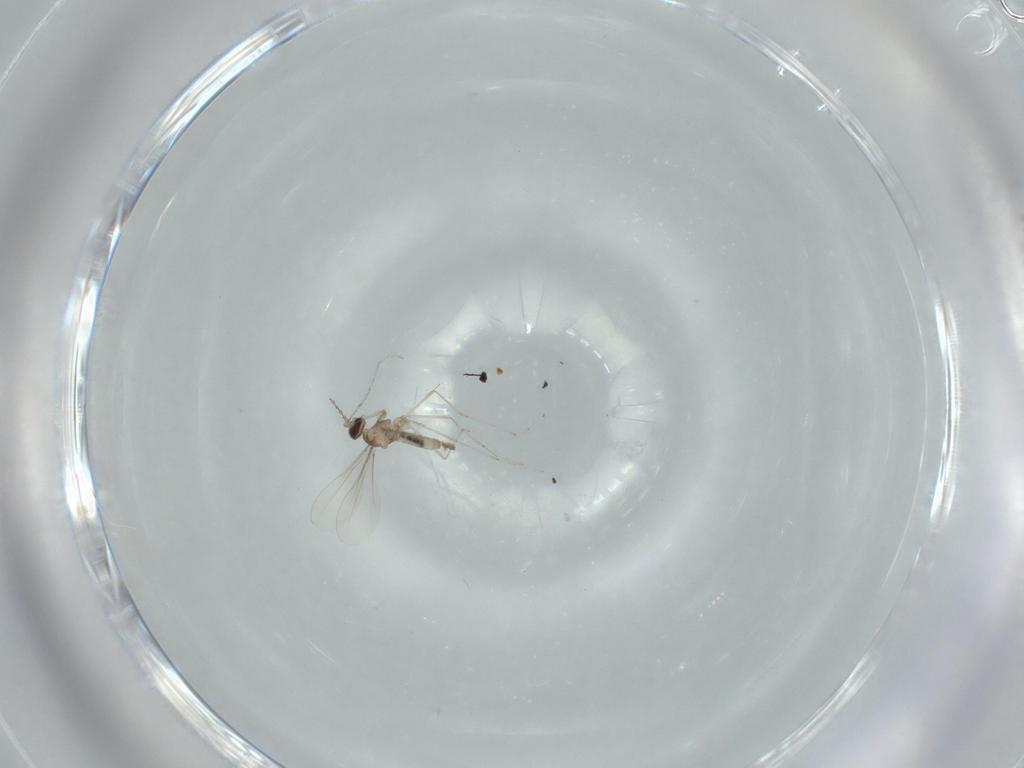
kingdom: Animalia
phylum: Arthropoda
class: Insecta
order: Diptera
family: Cecidomyiidae
